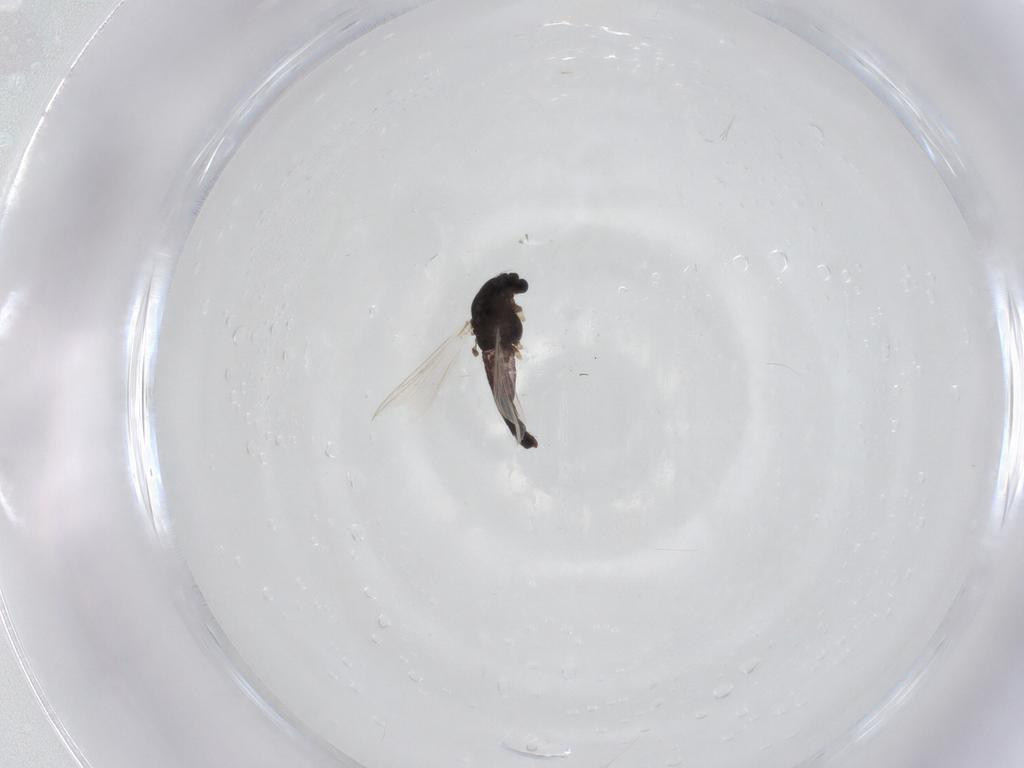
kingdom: Animalia
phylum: Arthropoda
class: Insecta
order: Diptera
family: Chironomidae
